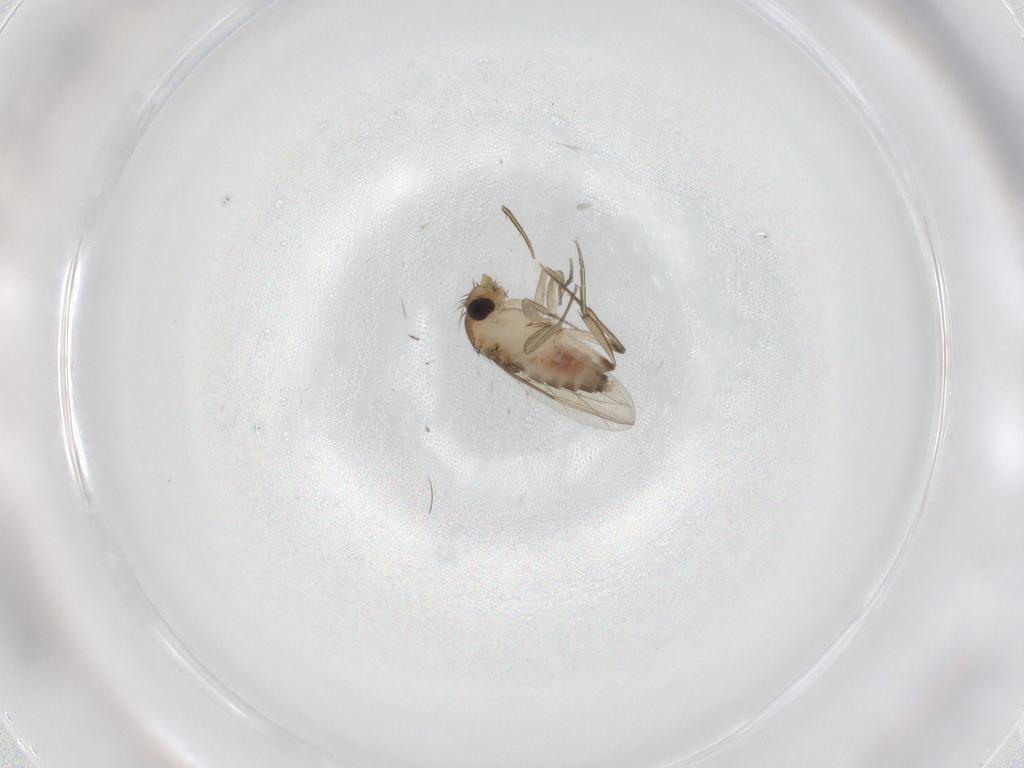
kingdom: Animalia
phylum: Arthropoda
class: Insecta
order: Diptera
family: Phoridae
